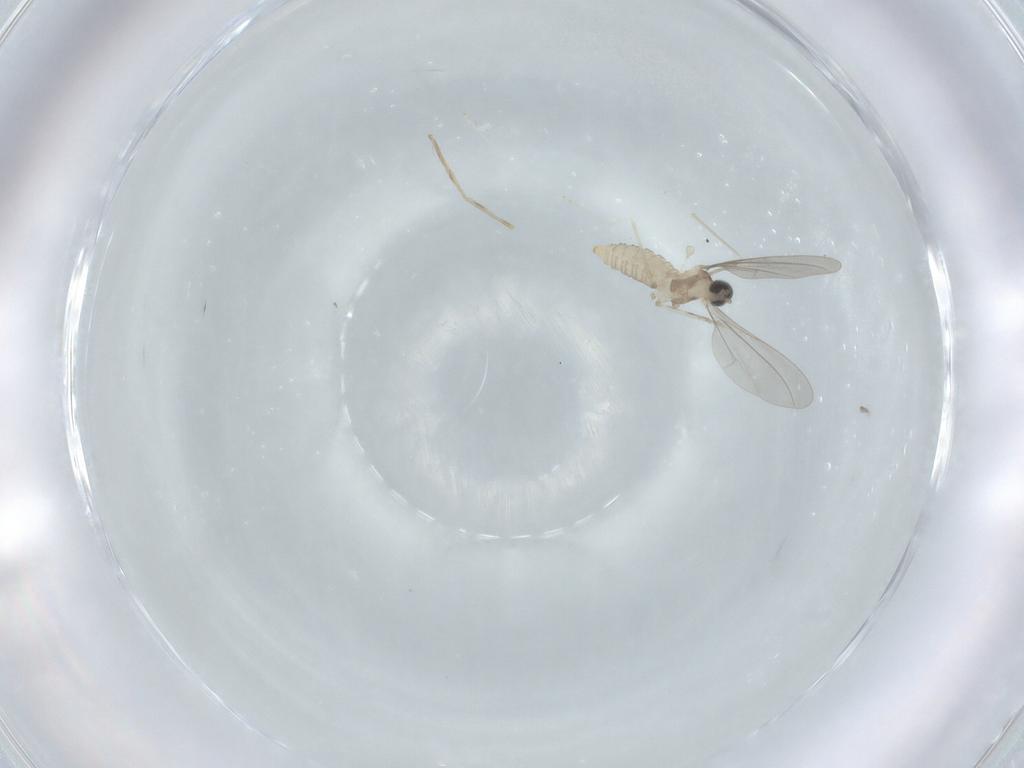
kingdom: Animalia
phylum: Arthropoda
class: Insecta
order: Diptera
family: Cecidomyiidae
